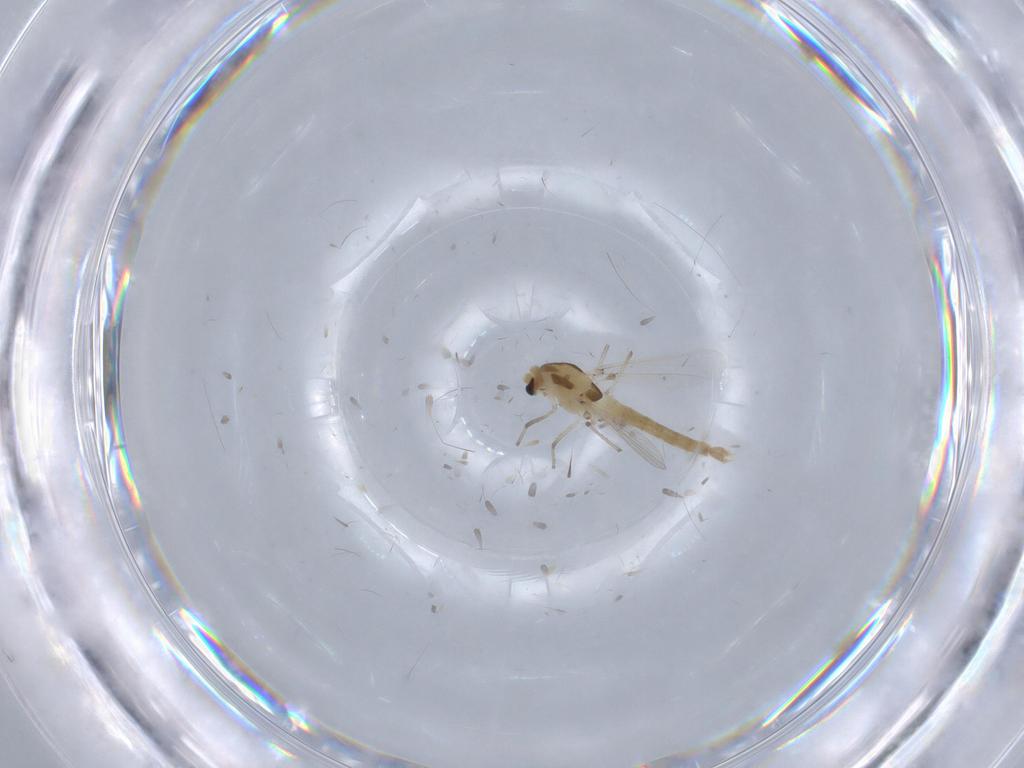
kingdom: Animalia
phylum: Arthropoda
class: Insecta
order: Diptera
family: Chironomidae
